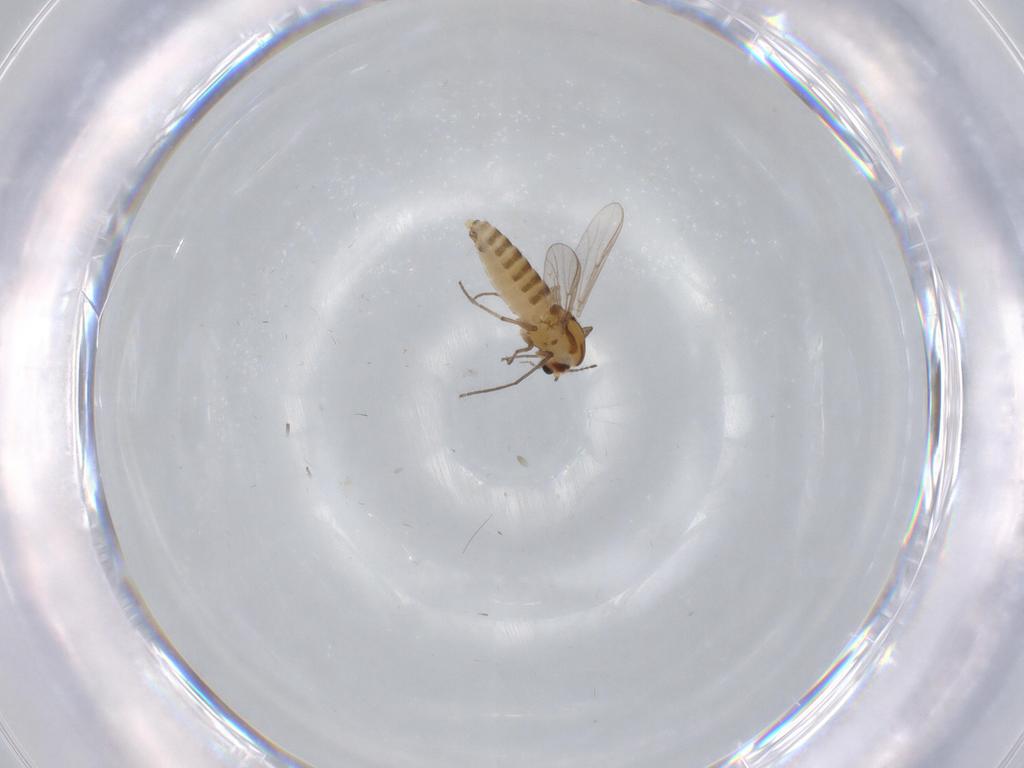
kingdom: Animalia
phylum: Arthropoda
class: Insecta
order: Diptera
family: Chironomidae
